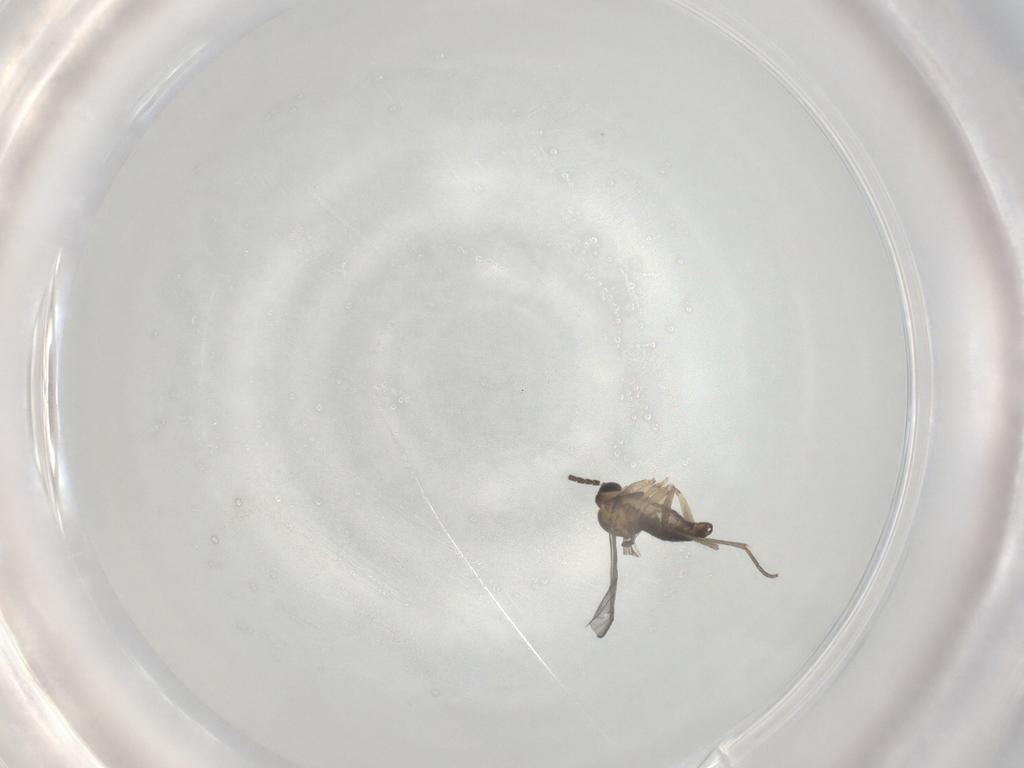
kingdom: Animalia
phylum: Arthropoda
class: Insecta
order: Diptera
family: Sciaridae
